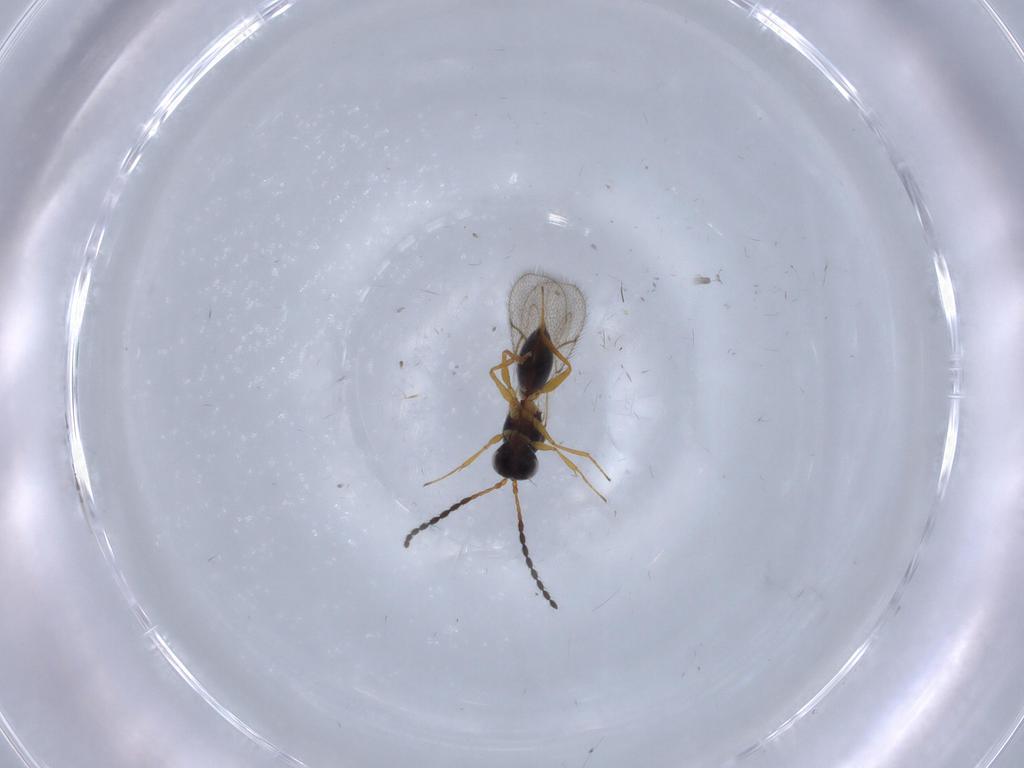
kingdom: Animalia
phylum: Arthropoda
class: Insecta
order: Hymenoptera
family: Figitidae
